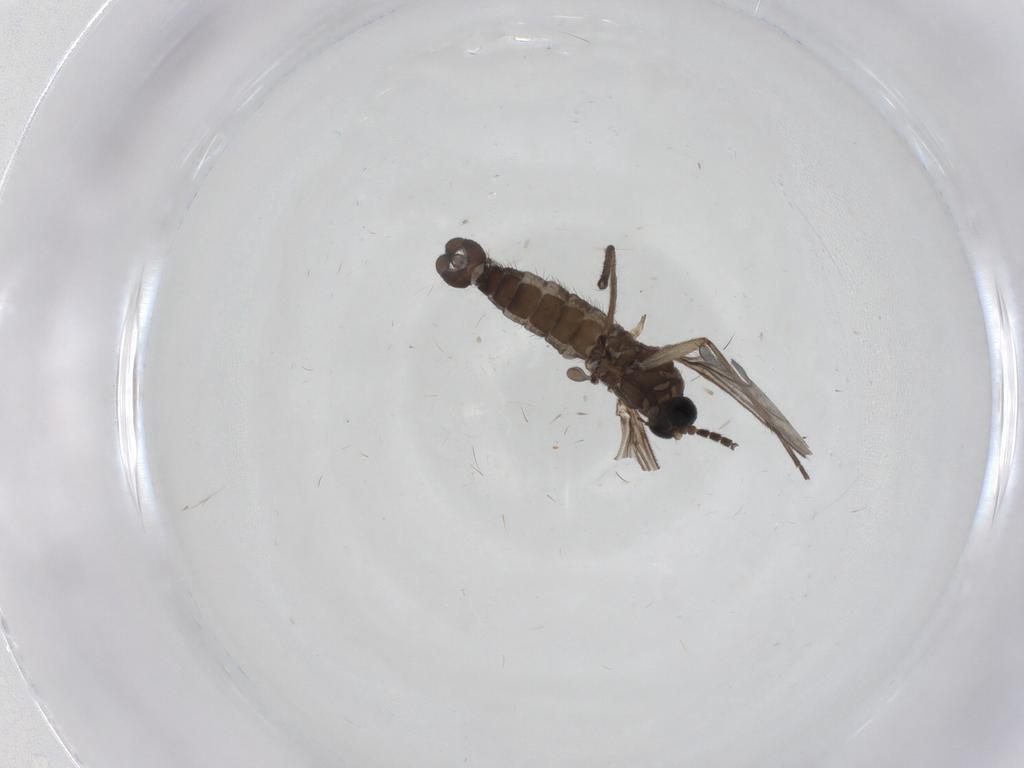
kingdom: Animalia
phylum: Arthropoda
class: Insecta
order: Diptera
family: Sciaridae
